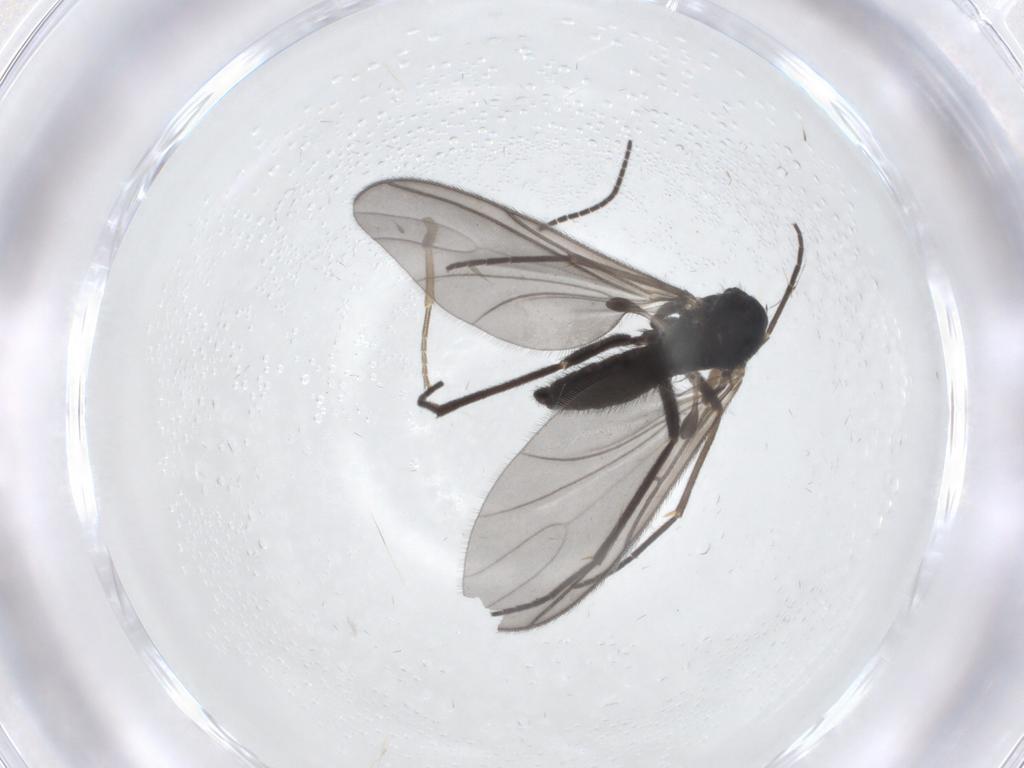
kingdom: Animalia
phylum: Arthropoda
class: Insecta
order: Diptera
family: Sciaridae
